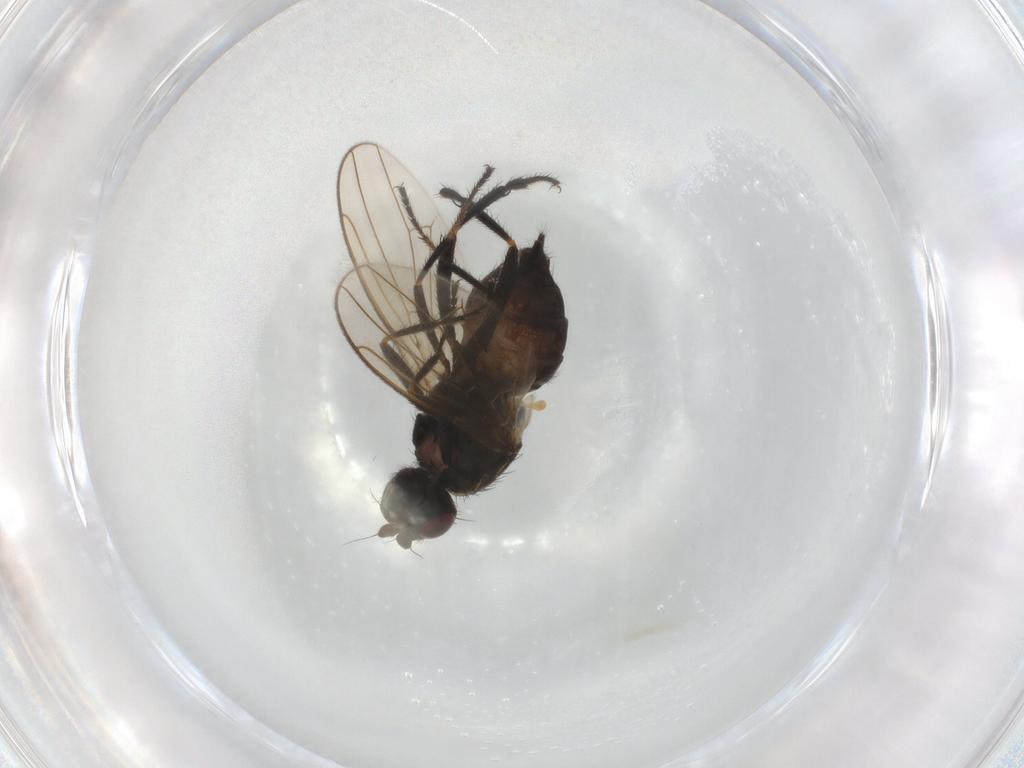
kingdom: Animalia
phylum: Arthropoda
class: Insecta
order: Diptera
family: Sphaeroceridae
